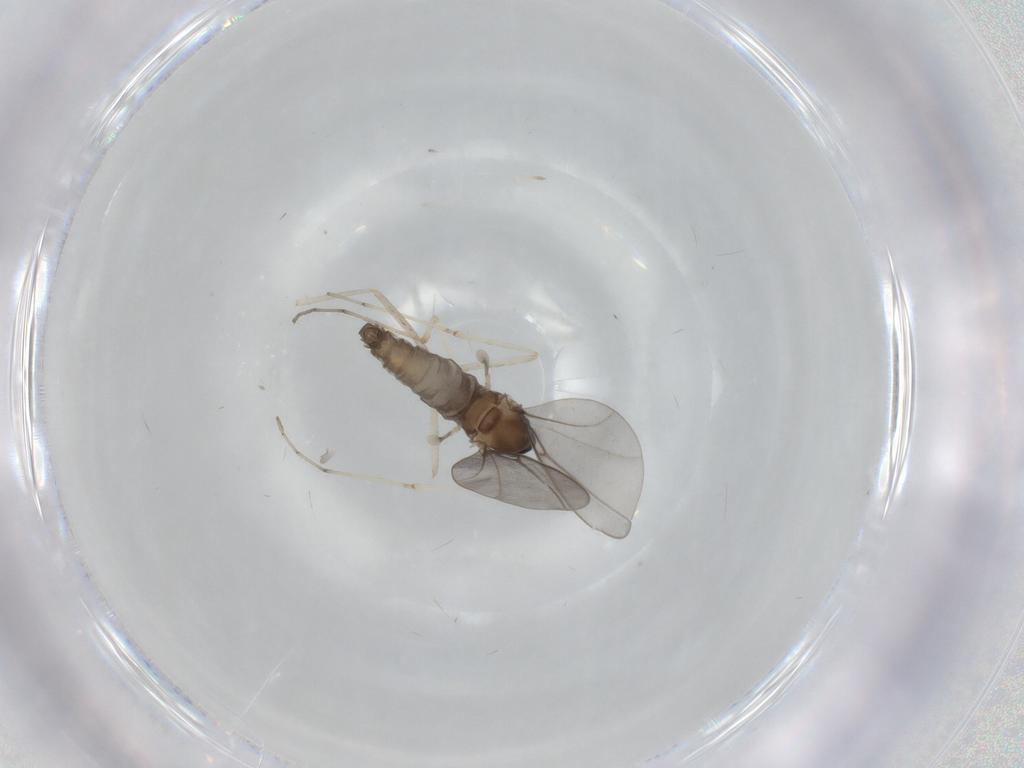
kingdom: Animalia
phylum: Arthropoda
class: Insecta
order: Diptera
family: Cecidomyiidae
